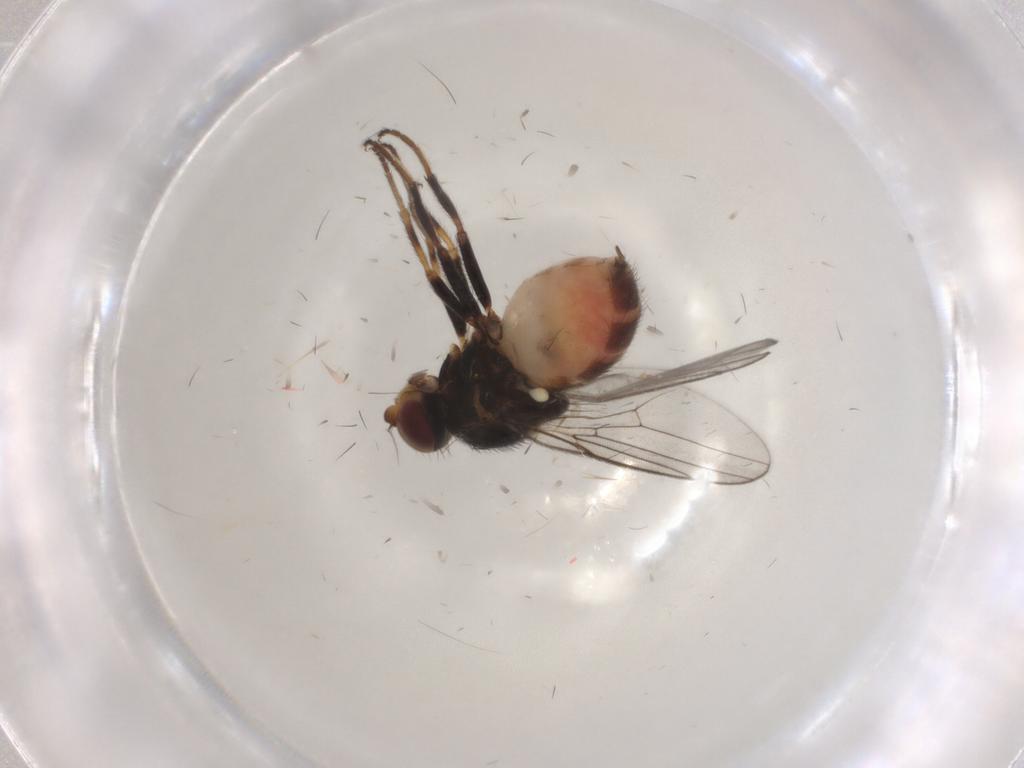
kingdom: Animalia
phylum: Arthropoda
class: Insecta
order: Diptera
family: Chloropidae
